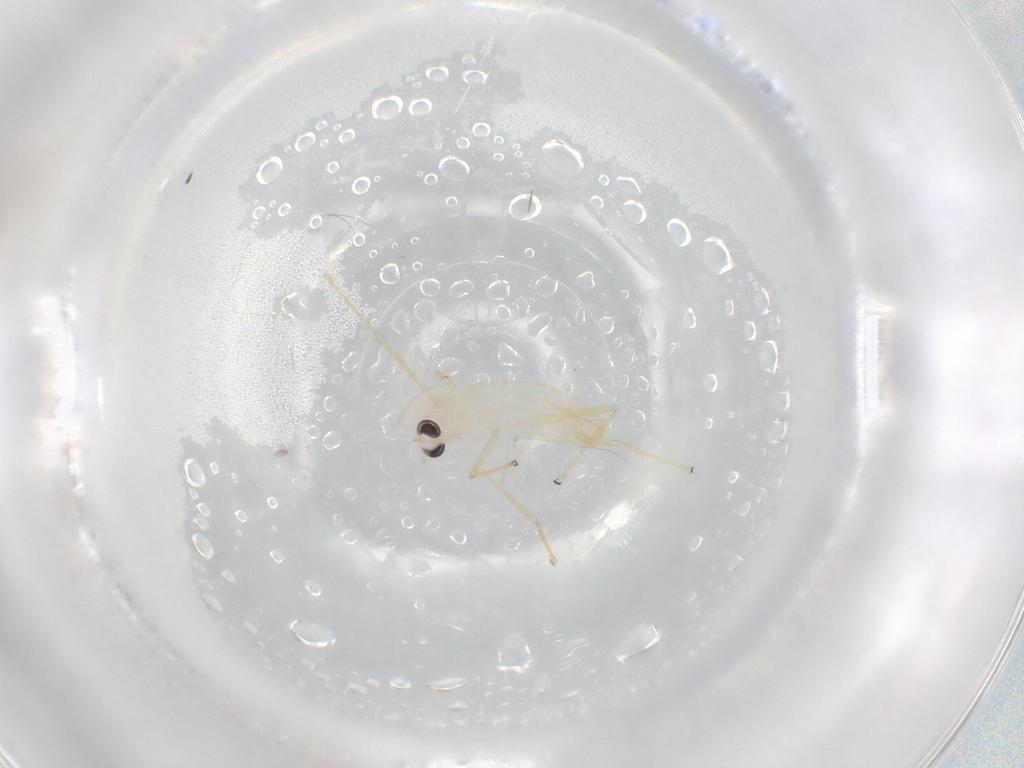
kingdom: Animalia
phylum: Arthropoda
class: Insecta
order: Diptera
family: Chironomidae
